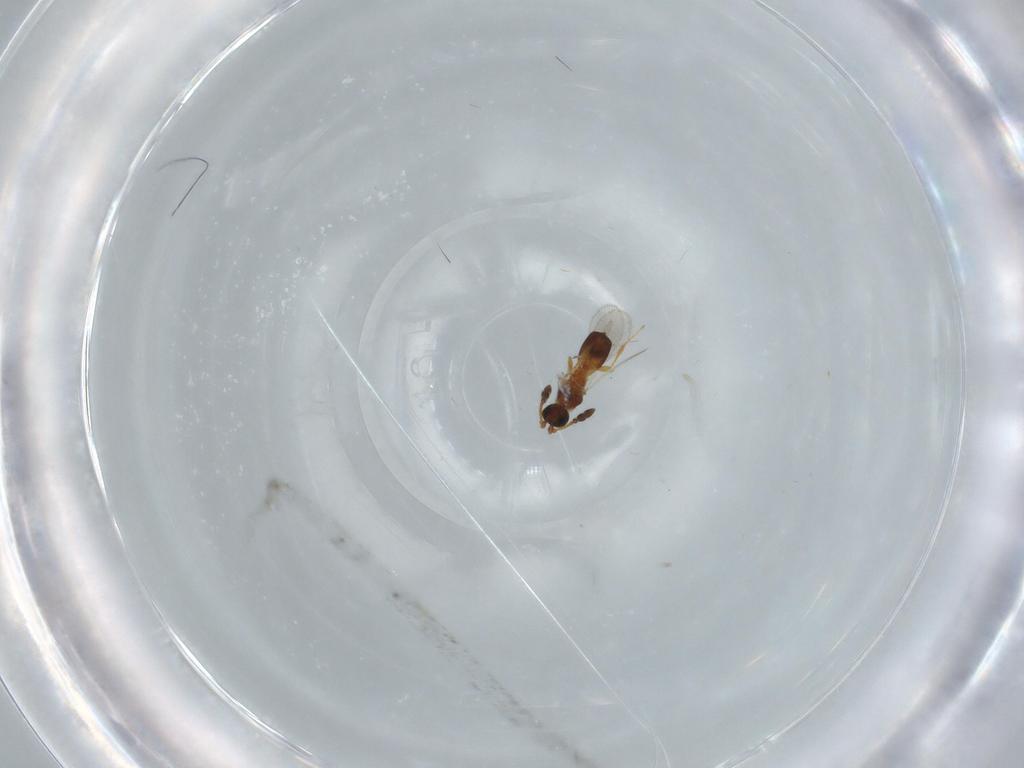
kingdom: Animalia
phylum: Arthropoda
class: Insecta
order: Hymenoptera
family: Diapriidae
